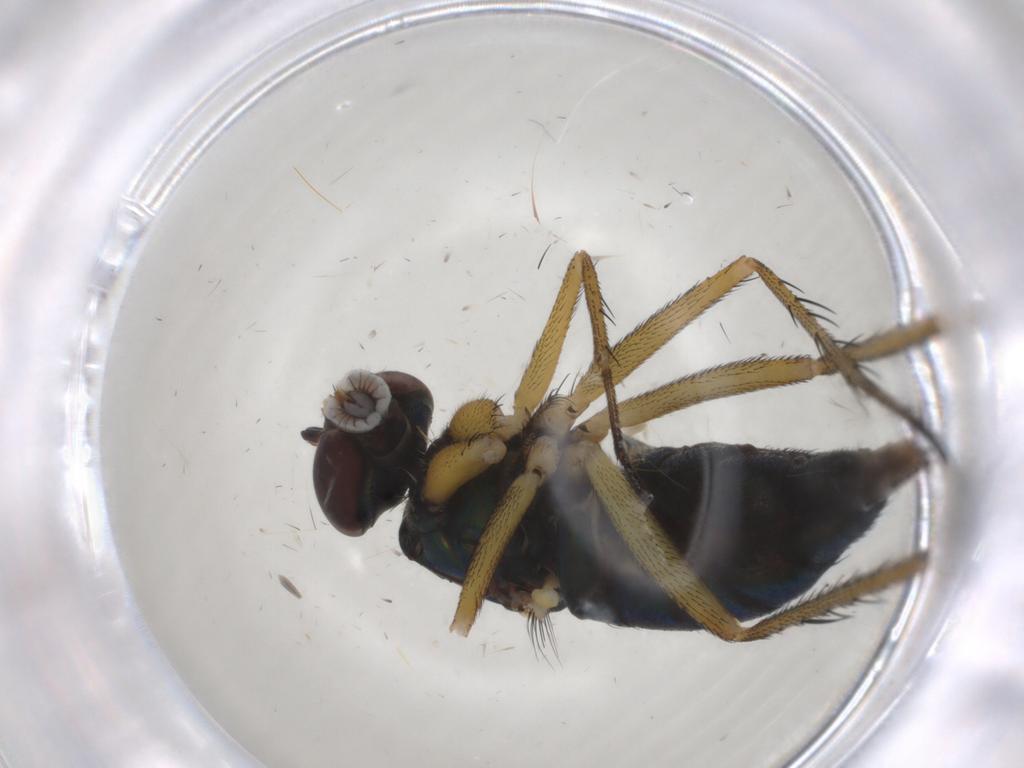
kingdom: Animalia
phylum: Arthropoda
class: Insecta
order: Diptera
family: Dolichopodidae
